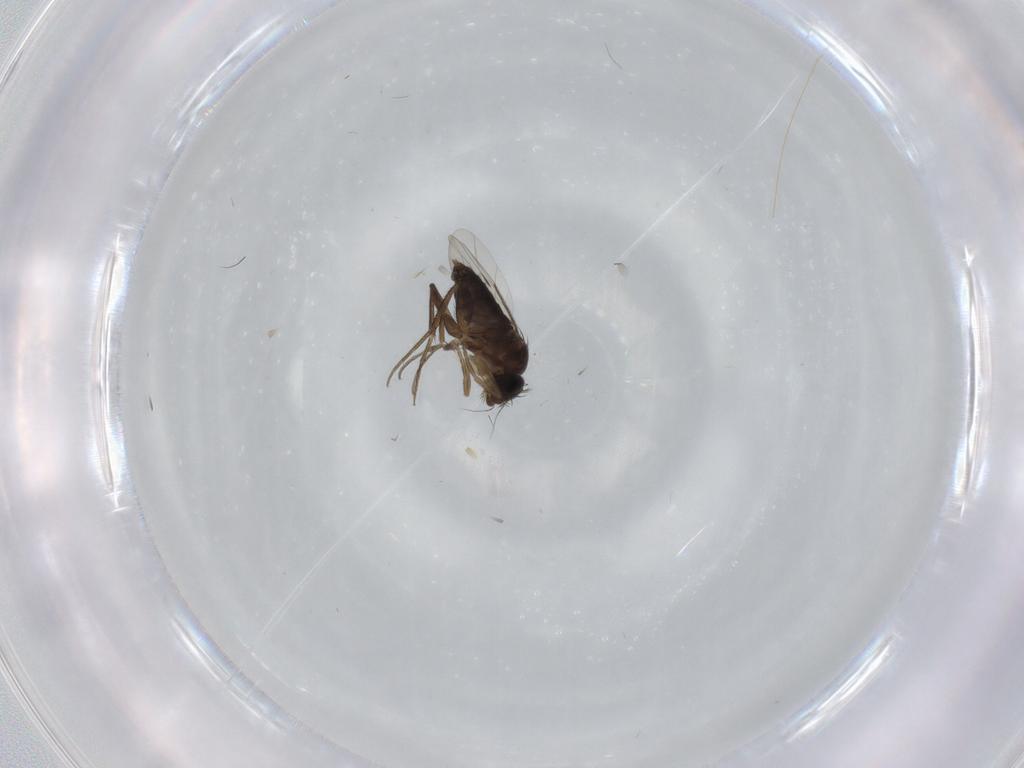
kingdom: Animalia
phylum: Arthropoda
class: Insecta
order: Diptera
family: Phoridae
